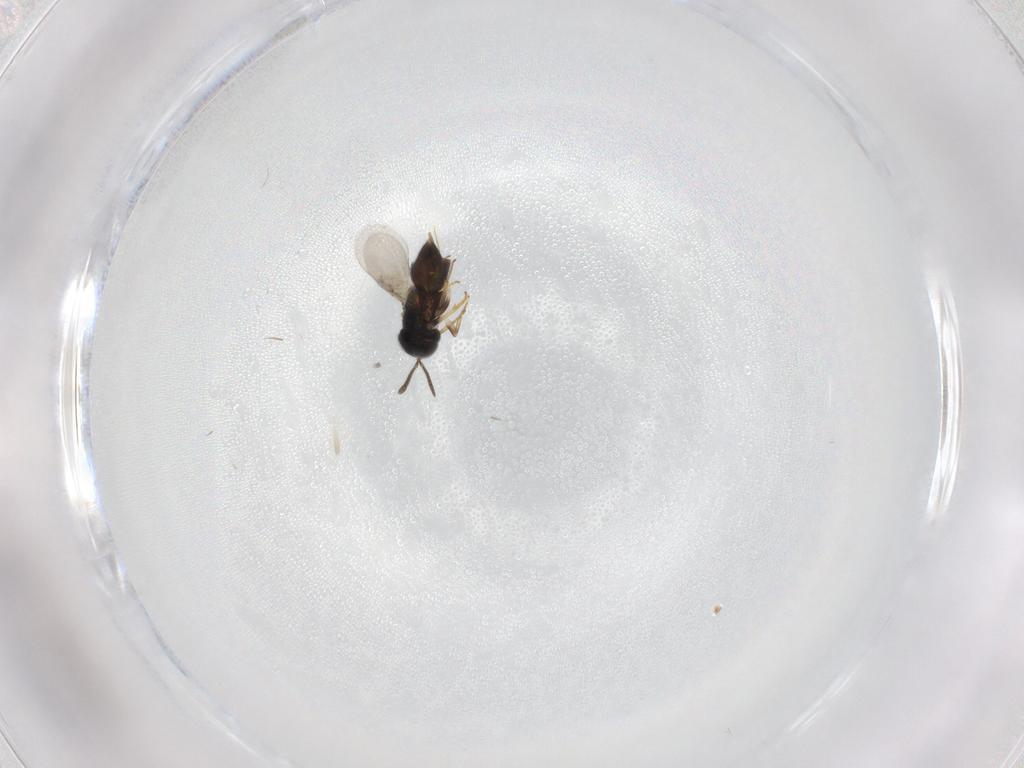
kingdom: Animalia
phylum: Arthropoda
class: Insecta
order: Hymenoptera
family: Encyrtidae
